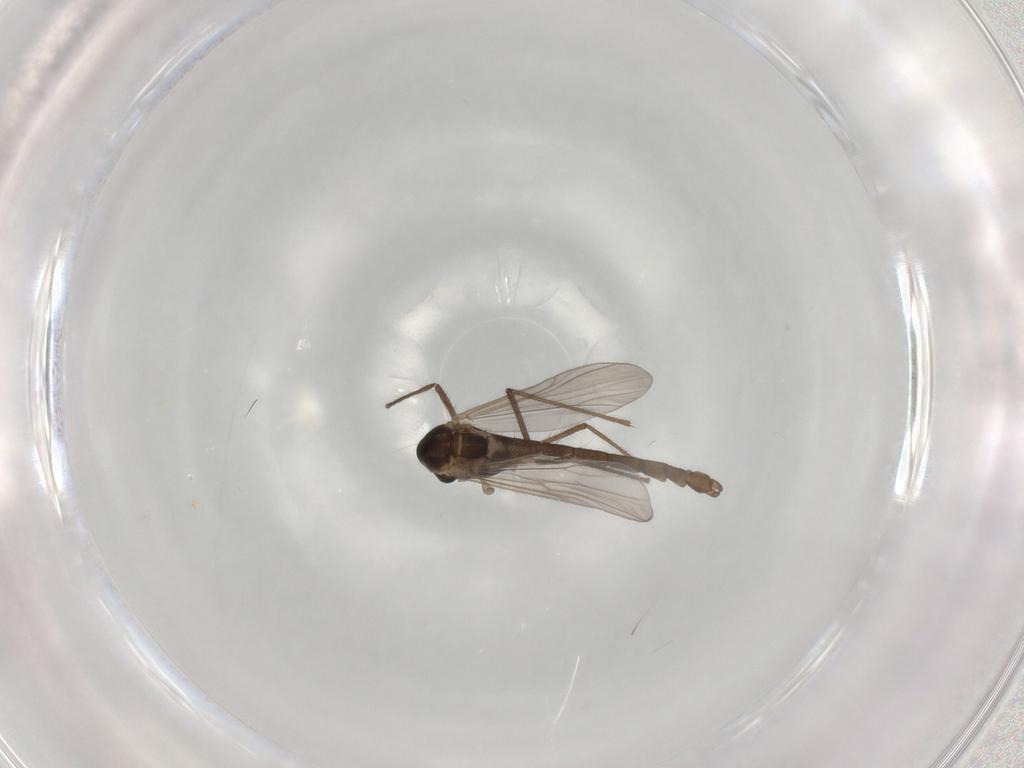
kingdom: Animalia
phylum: Arthropoda
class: Insecta
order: Diptera
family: Chironomidae
